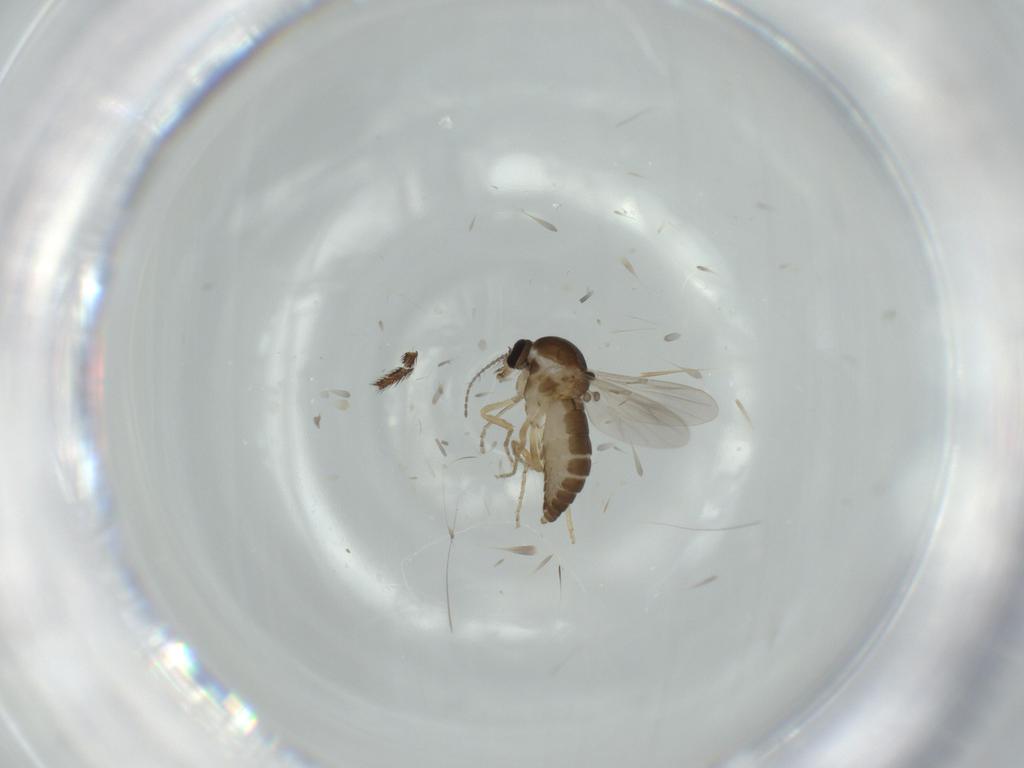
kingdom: Animalia
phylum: Arthropoda
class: Insecta
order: Diptera
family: Ceratopogonidae
